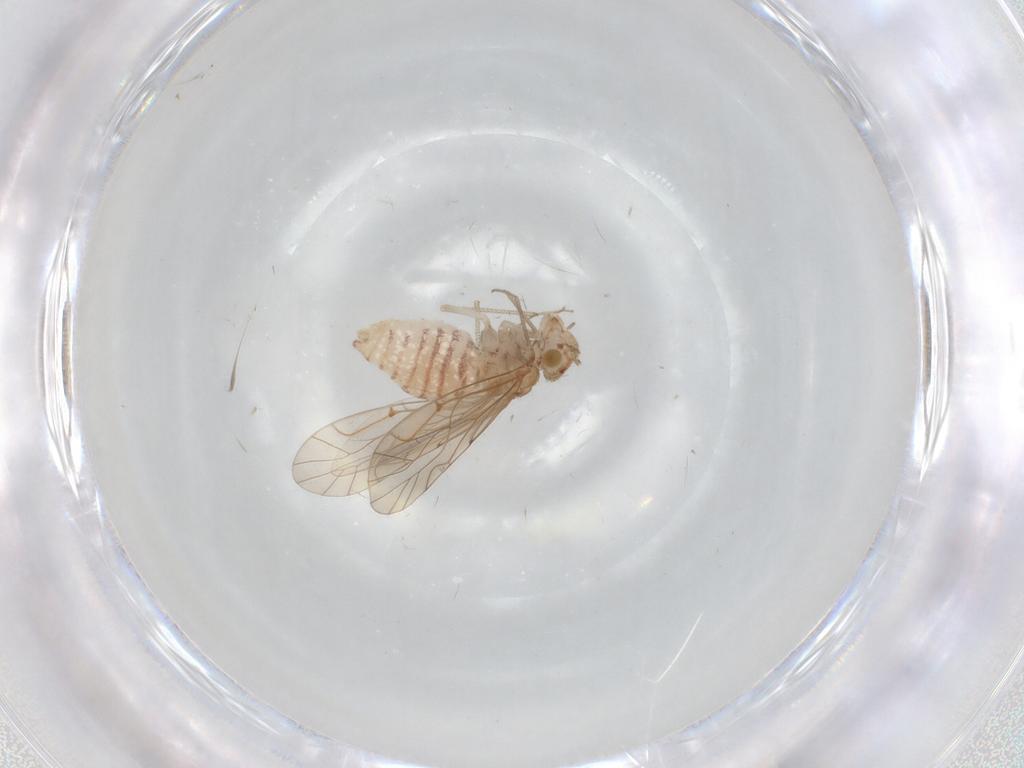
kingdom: Animalia
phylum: Arthropoda
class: Insecta
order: Psocodea
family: Lachesillidae
